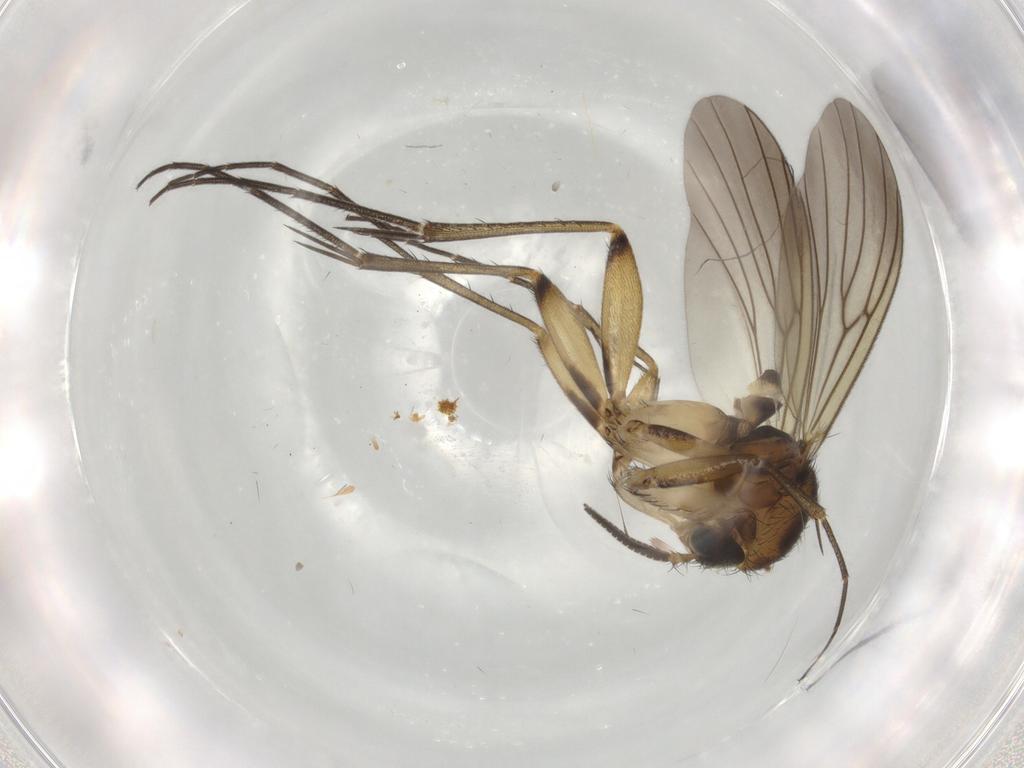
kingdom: Animalia
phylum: Arthropoda
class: Insecta
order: Diptera
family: Mycetophilidae
